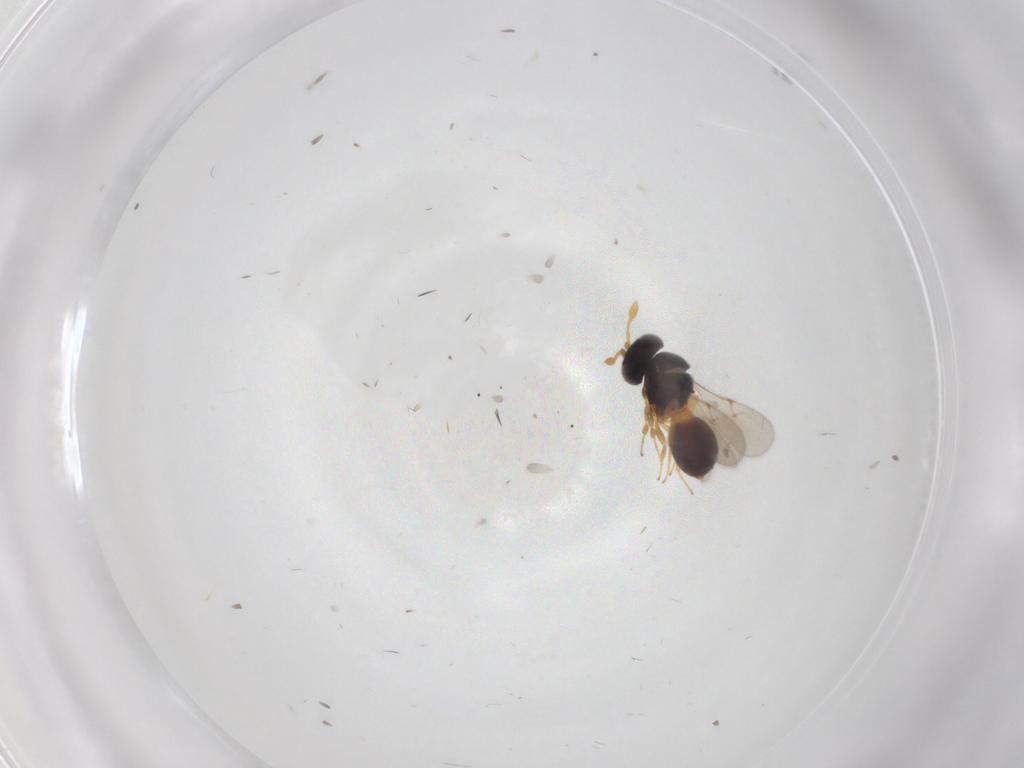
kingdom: Animalia
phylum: Arthropoda
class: Insecta
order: Hymenoptera
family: Scelionidae
